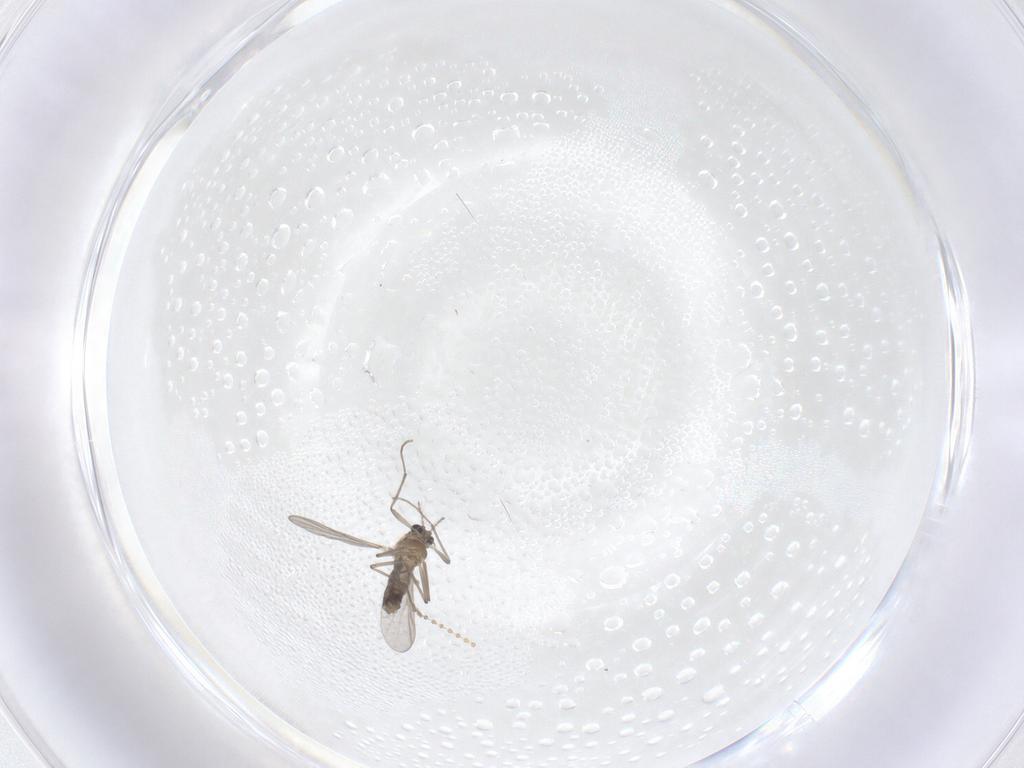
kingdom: Animalia
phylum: Arthropoda
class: Insecta
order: Diptera
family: Chironomidae
